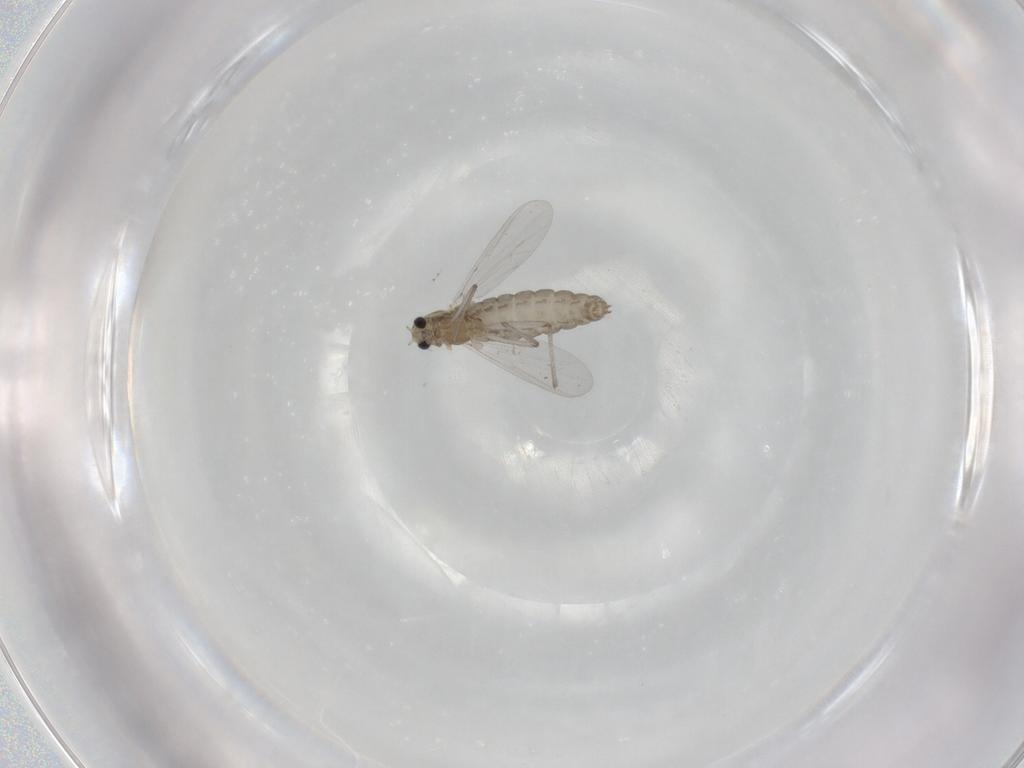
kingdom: Animalia
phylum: Arthropoda
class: Insecta
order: Diptera
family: Chironomidae
